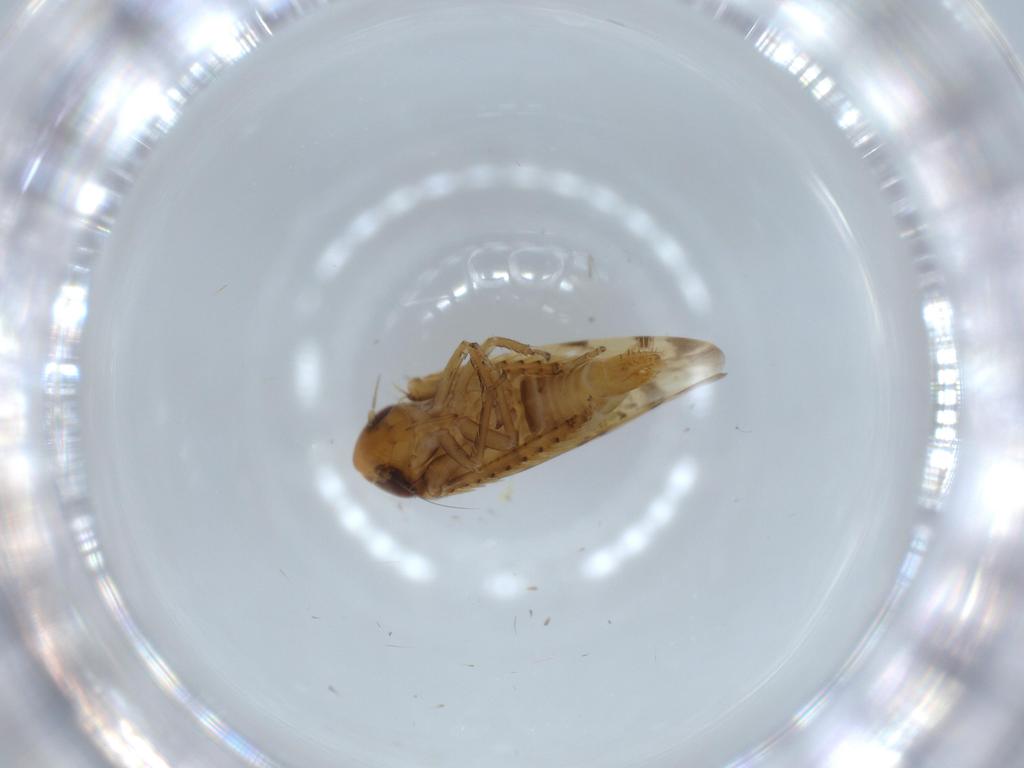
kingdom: Animalia
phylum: Arthropoda
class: Insecta
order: Hemiptera
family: Cicadellidae
